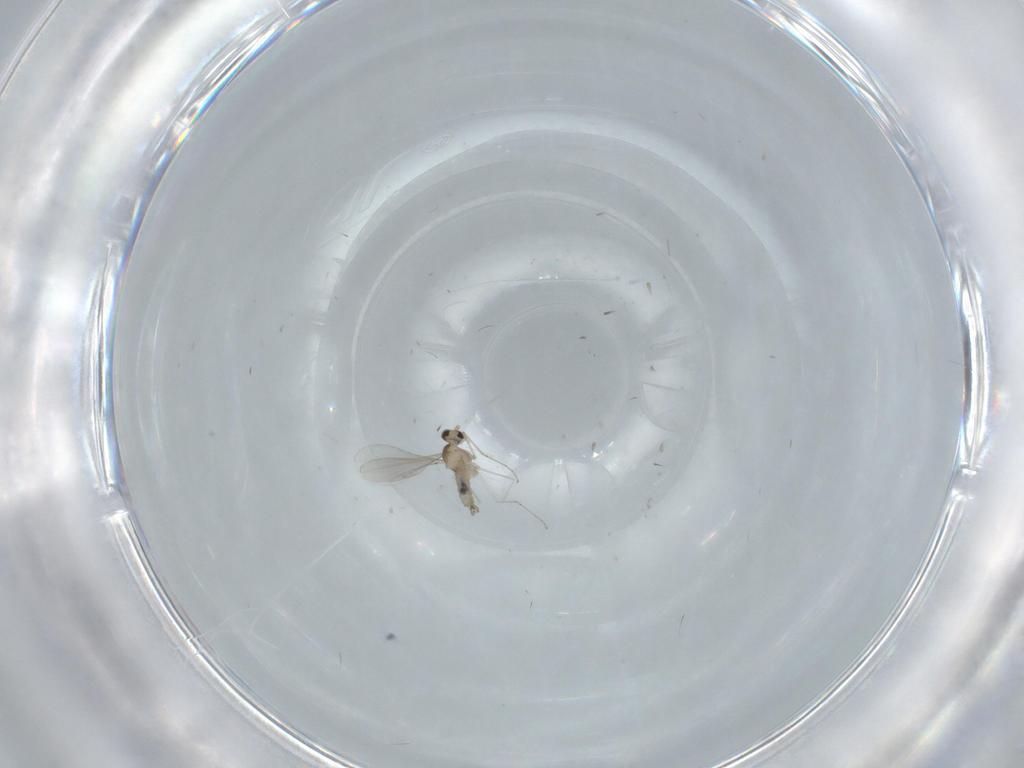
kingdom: Animalia
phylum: Arthropoda
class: Insecta
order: Diptera
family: Cecidomyiidae
